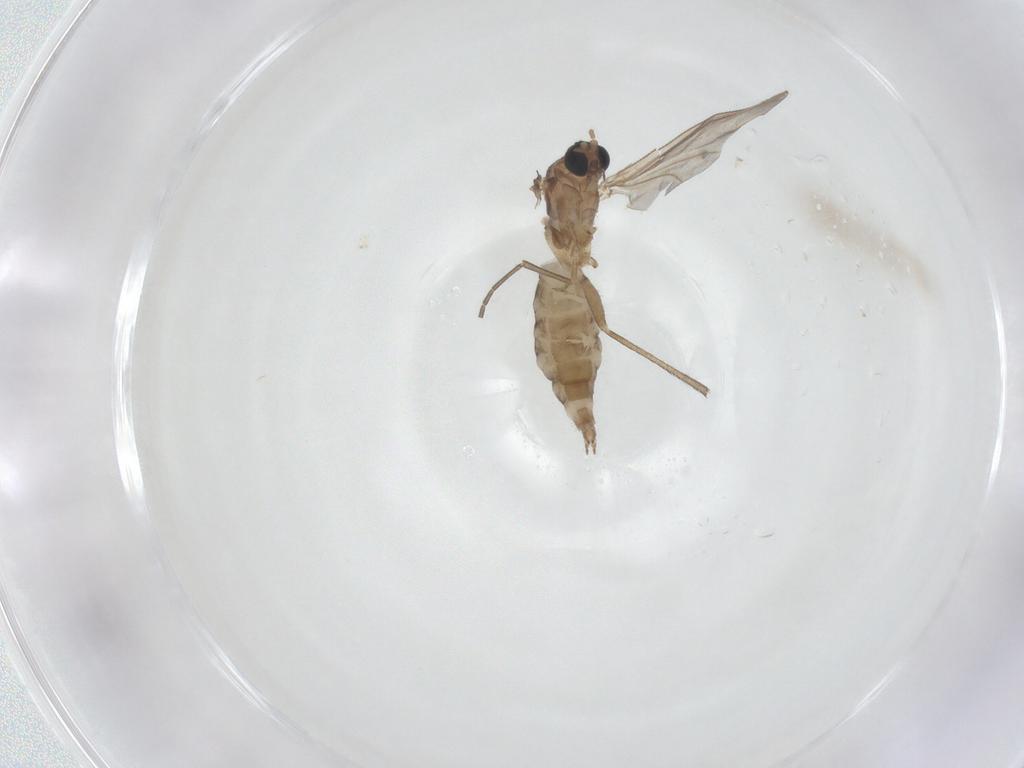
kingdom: Animalia
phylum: Arthropoda
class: Insecta
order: Diptera
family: Sciaridae
